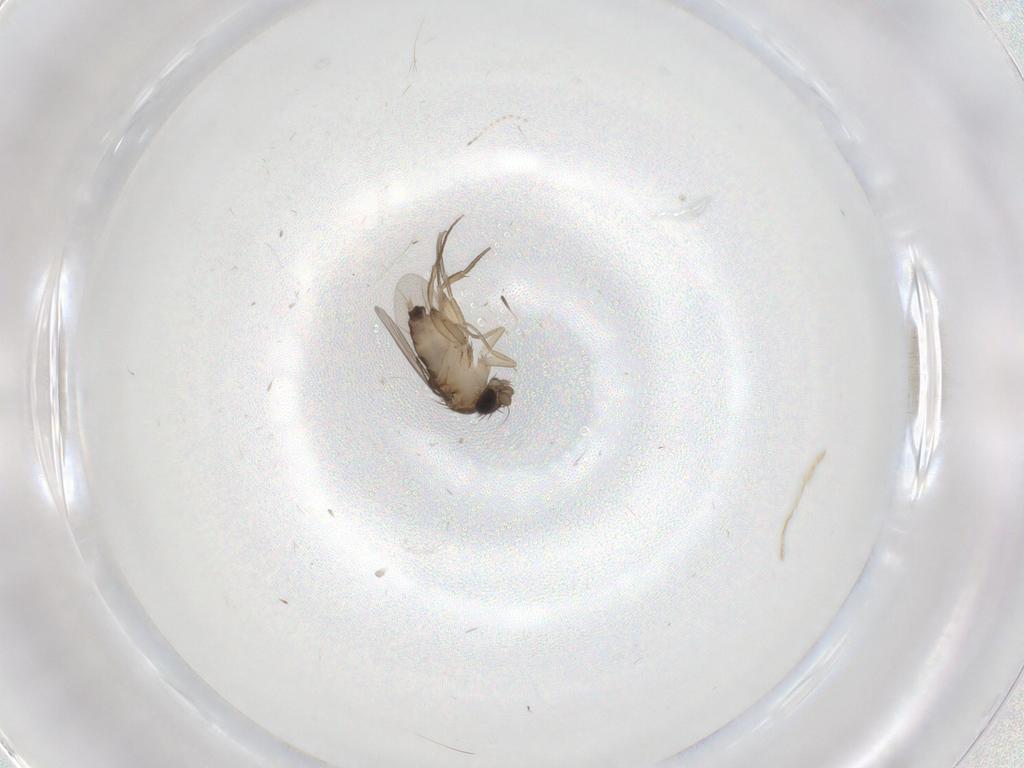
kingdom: Animalia
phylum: Arthropoda
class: Insecta
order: Diptera
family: Phoridae
